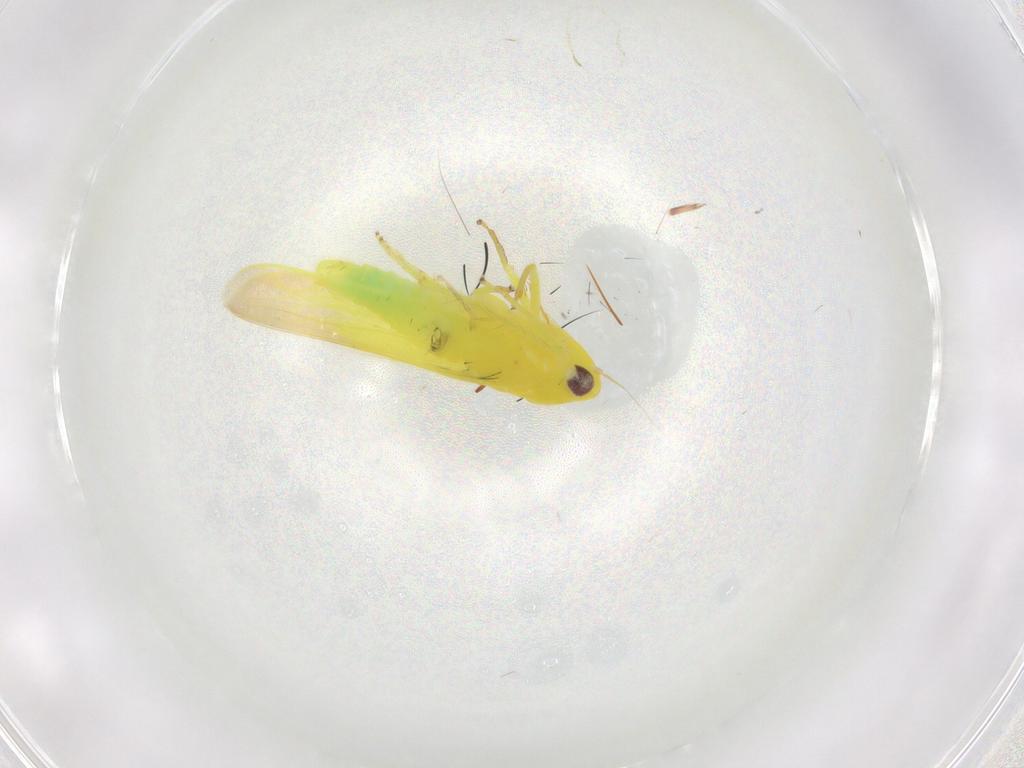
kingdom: Animalia
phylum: Arthropoda
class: Insecta
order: Hemiptera
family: Cicadellidae
